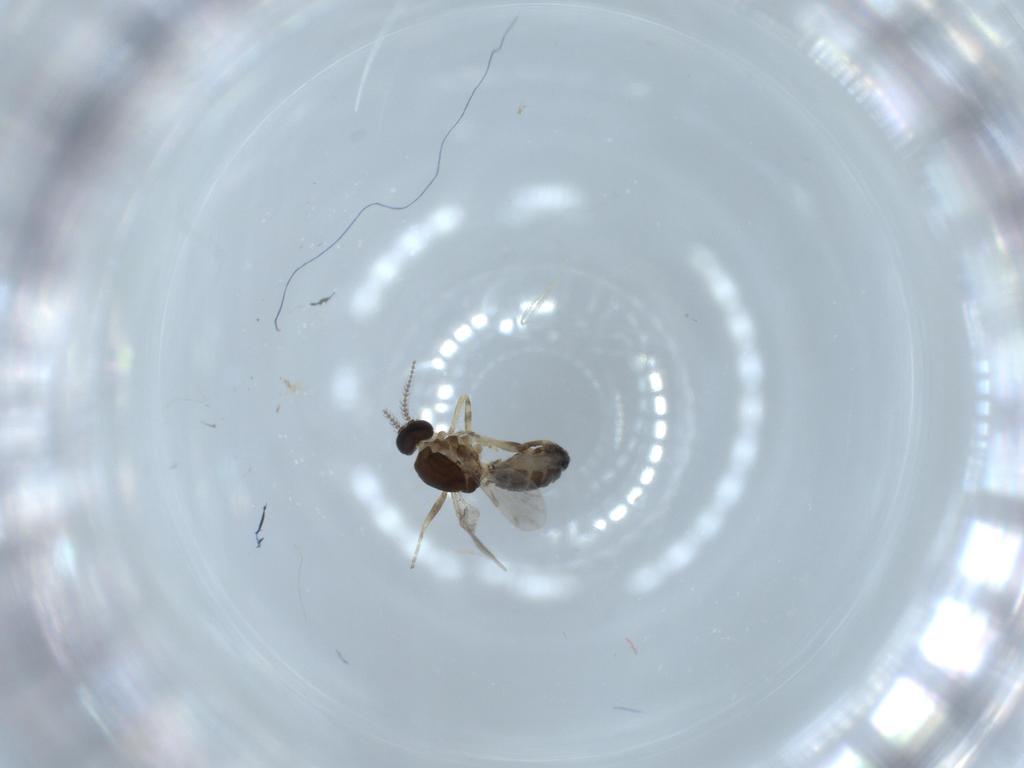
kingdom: Animalia
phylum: Arthropoda
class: Insecta
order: Diptera
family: Ceratopogonidae
